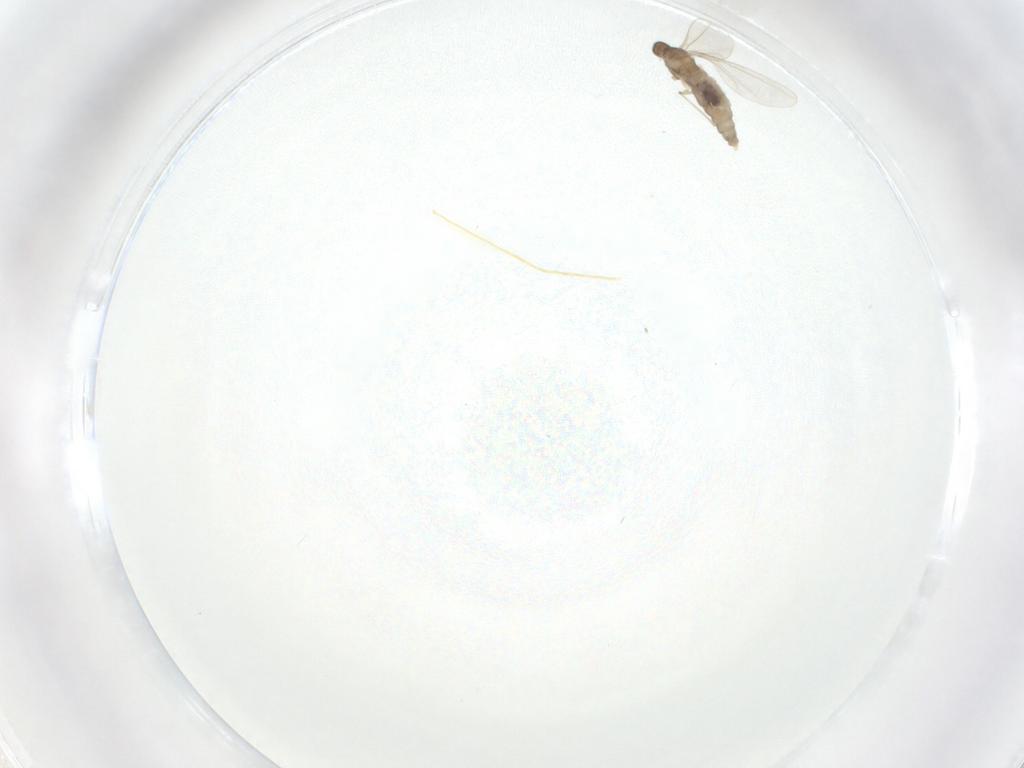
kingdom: Animalia
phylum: Arthropoda
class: Insecta
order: Diptera
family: Cecidomyiidae
